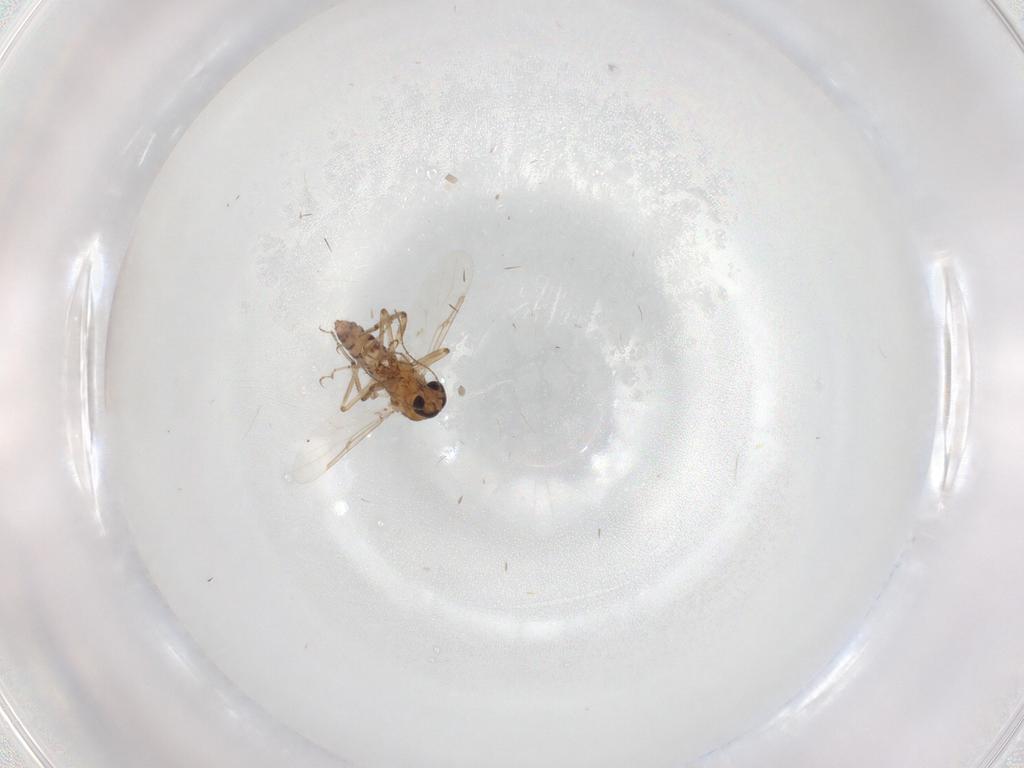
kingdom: Animalia
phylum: Arthropoda
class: Insecta
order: Diptera
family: Ceratopogonidae
